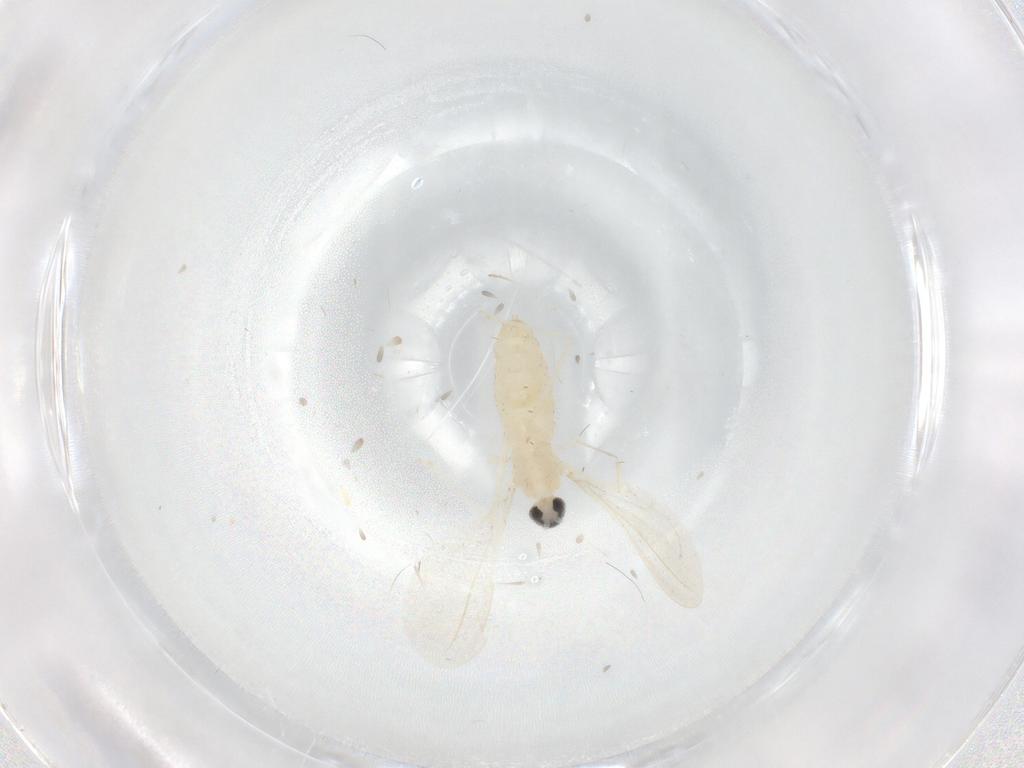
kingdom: Animalia
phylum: Arthropoda
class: Insecta
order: Diptera
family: Cecidomyiidae
